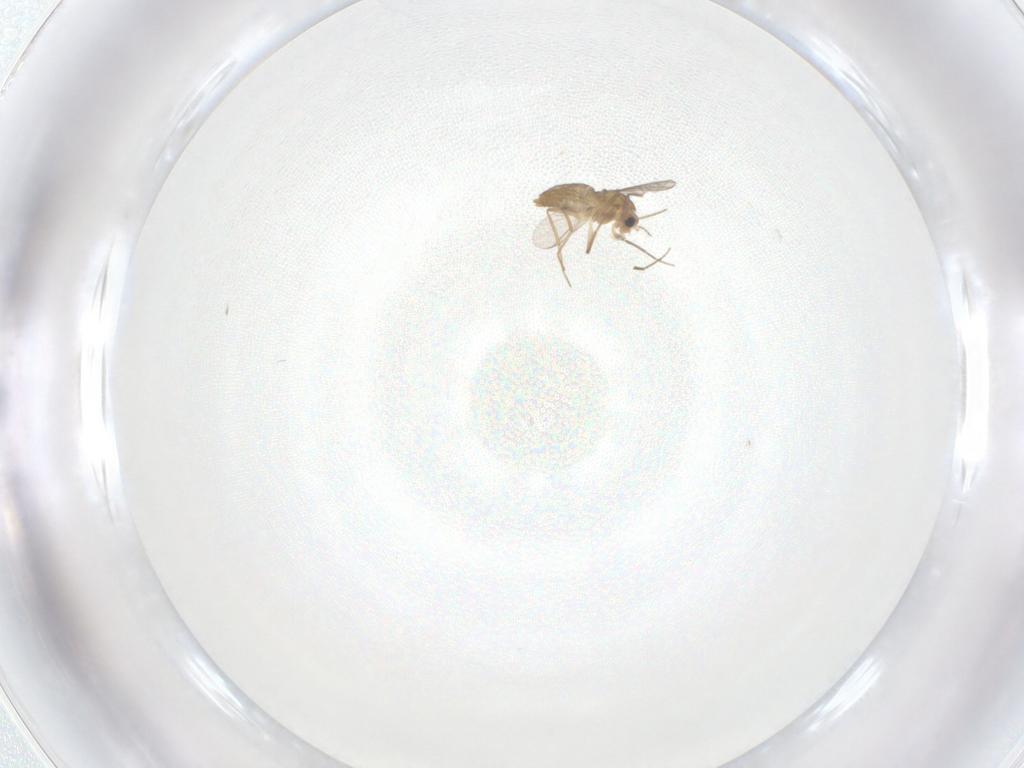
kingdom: Animalia
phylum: Arthropoda
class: Insecta
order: Diptera
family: Chironomidae
